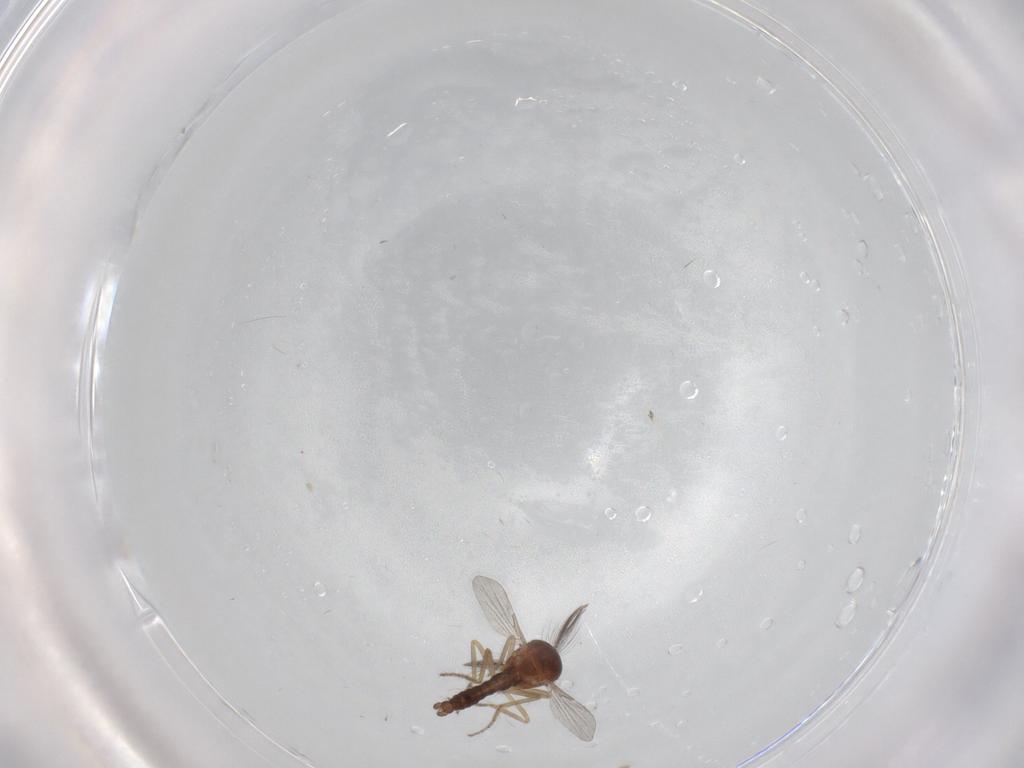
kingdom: Animalia
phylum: Arthropoda
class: Insecta
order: Diptera
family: Ceratopogonidae
